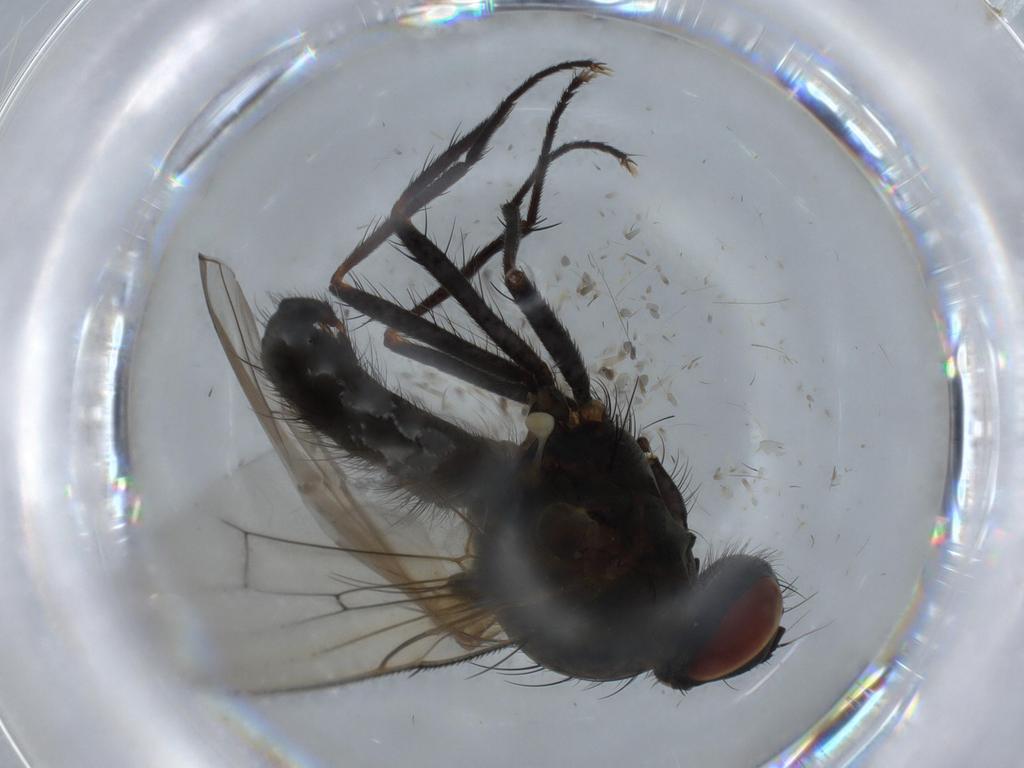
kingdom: Animalia
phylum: Arthropoda
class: Insecta
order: Diptera
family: Anthomyiidae
